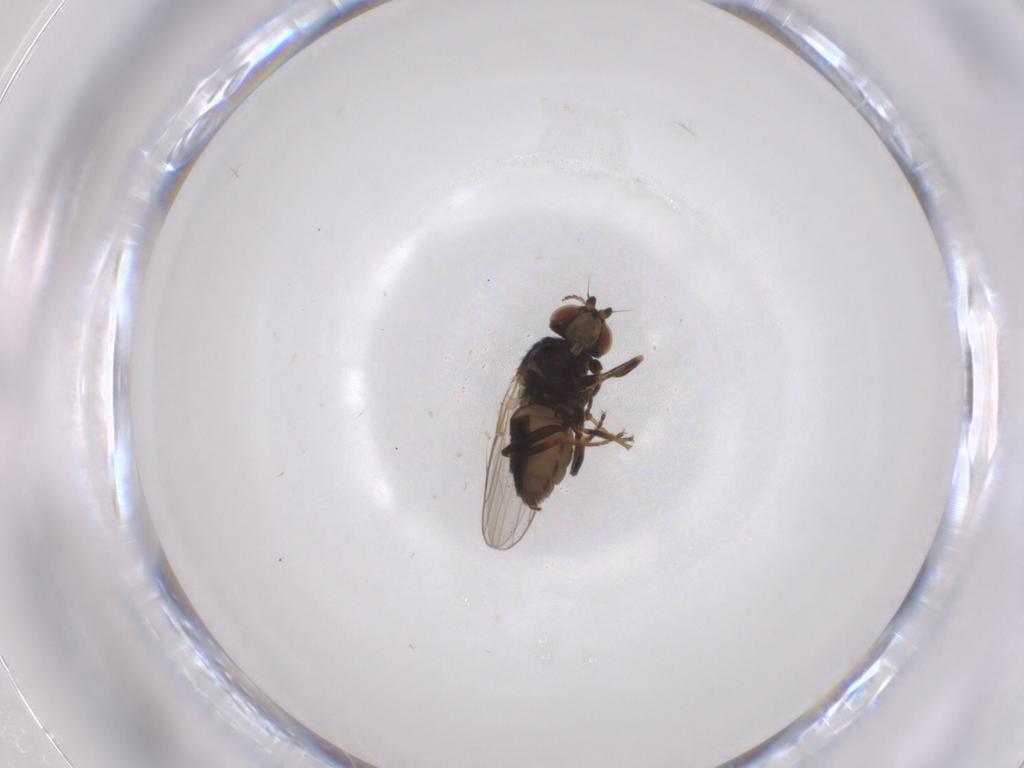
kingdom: Animalia
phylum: Arthropoda
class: Insecta
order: Diptera
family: Chloropidae
